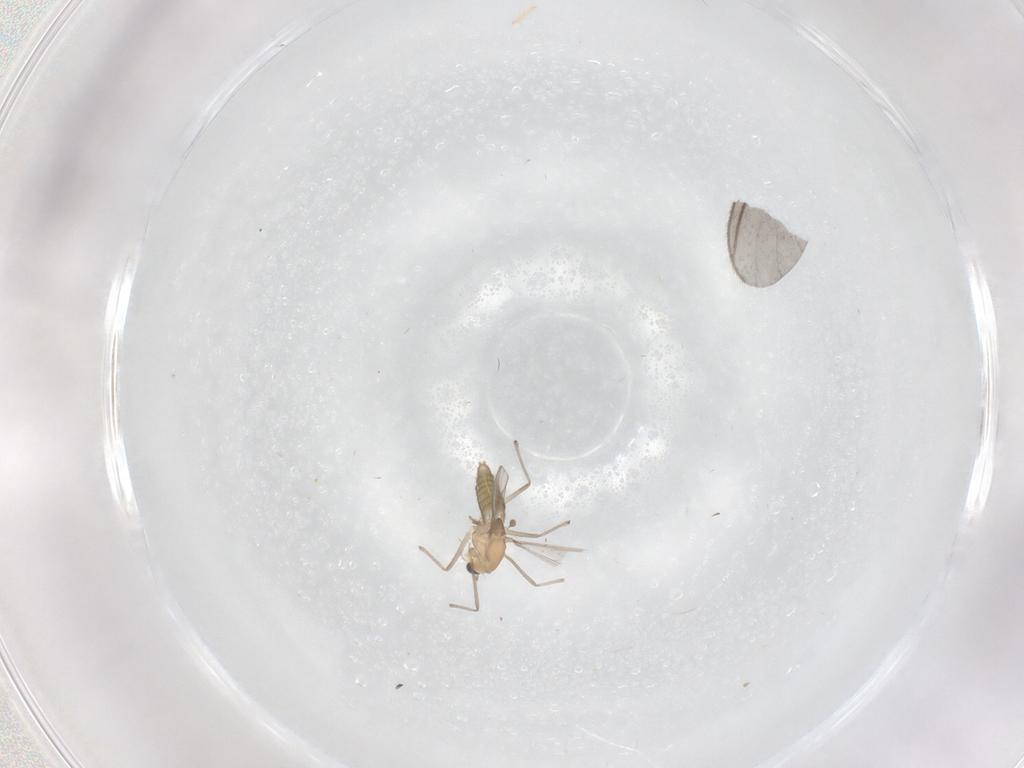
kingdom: Animalia
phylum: Arthropoda
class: Insecta
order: Diptera
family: Chironomidae
